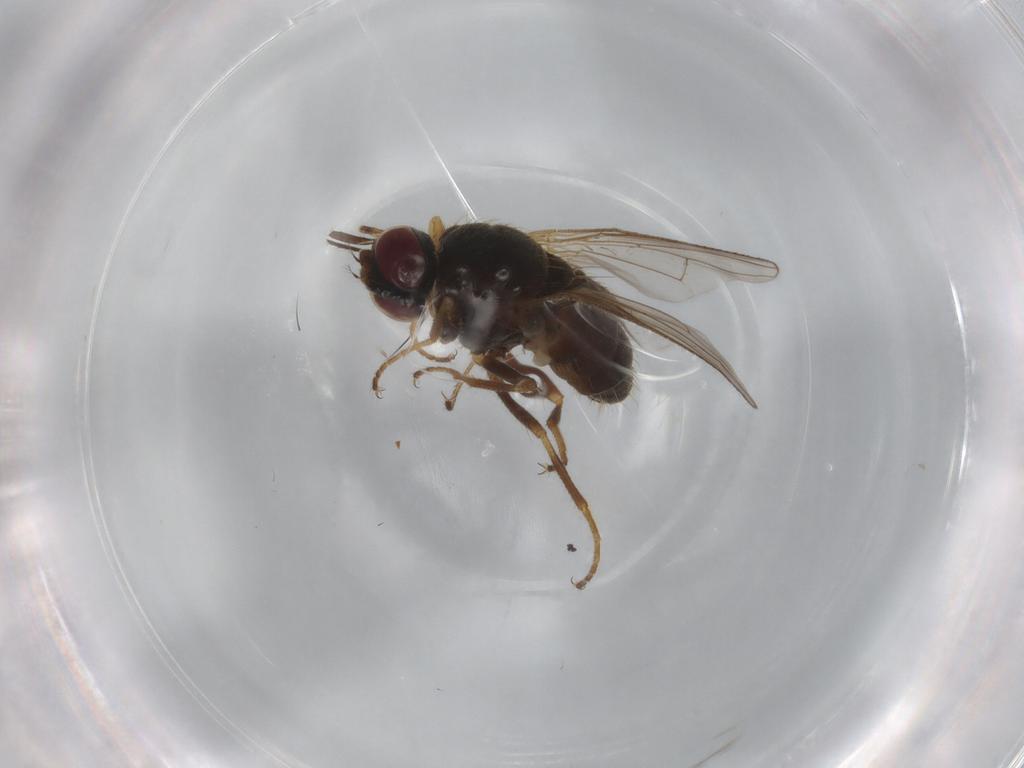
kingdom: Animalia
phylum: Arthropoda
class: Insecta
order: Diptera
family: Muscidae
